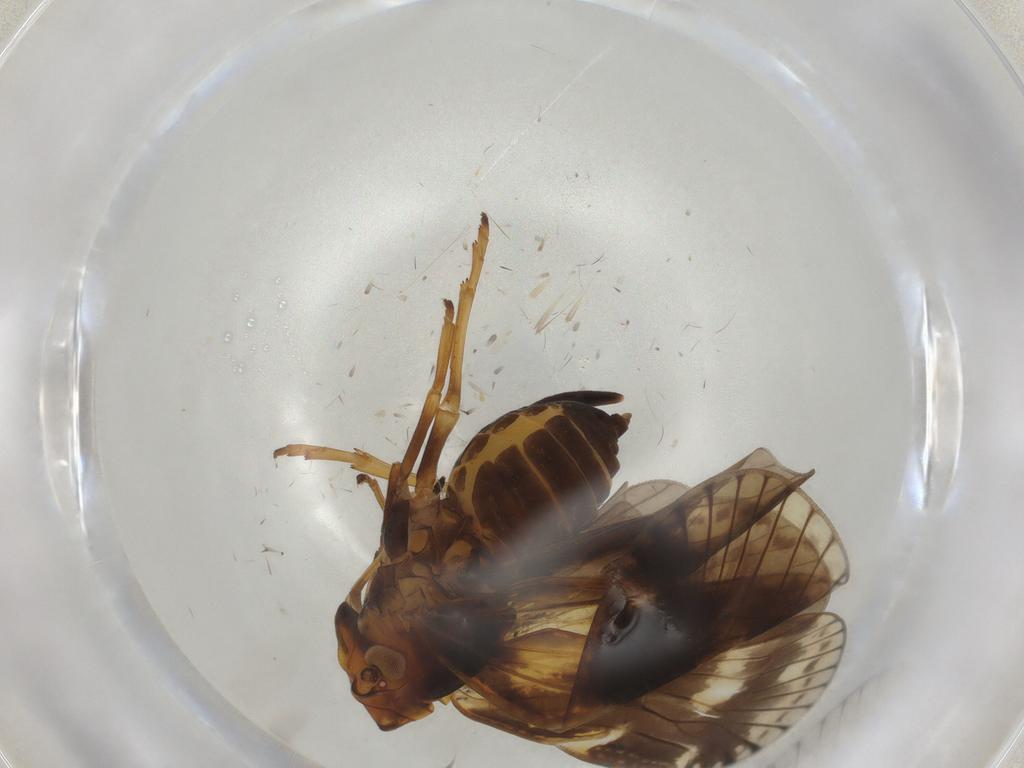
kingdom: Animalia
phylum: Arthropoda
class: Insecta
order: Hemiptera
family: Cixiidae
